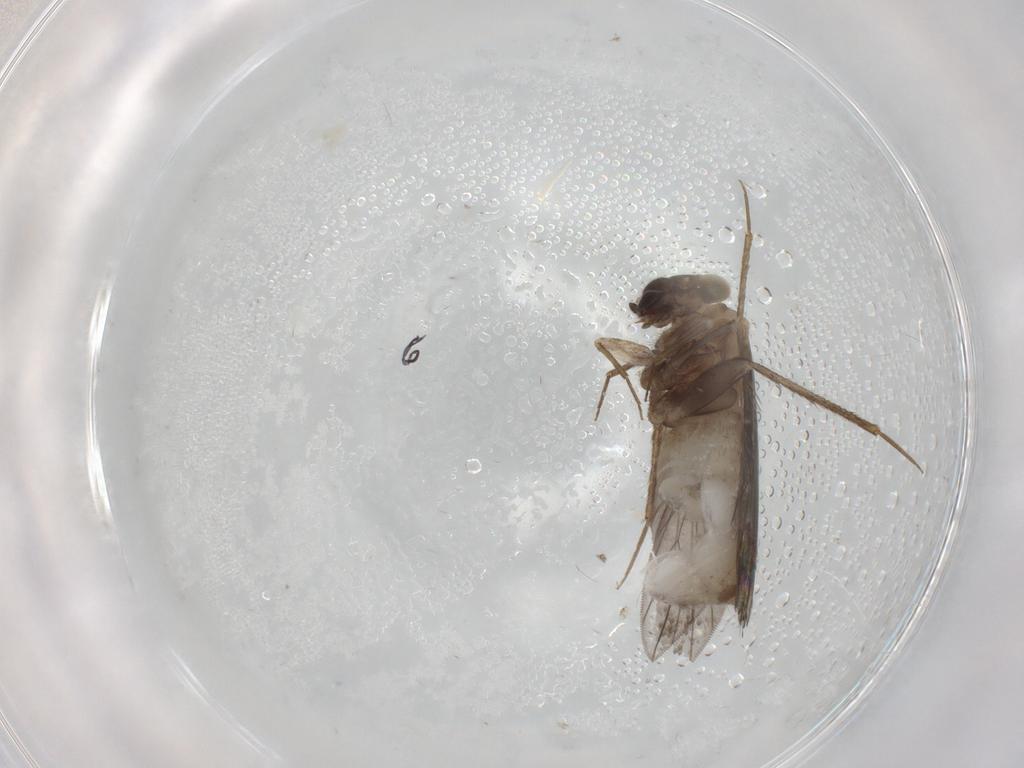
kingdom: Animalia
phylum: Arthropoda
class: Insecta
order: Psocodea
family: Lepidopsocidae
